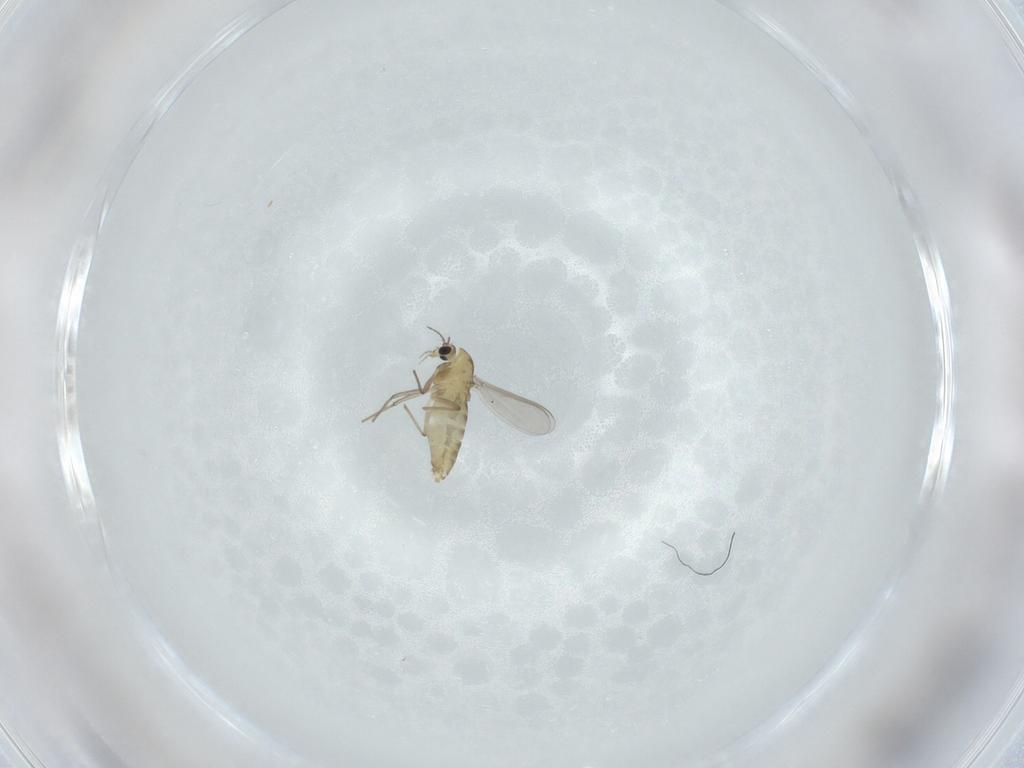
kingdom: Animalia
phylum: Arthropoda
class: Insecta
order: Diptera
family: Chironomidae
